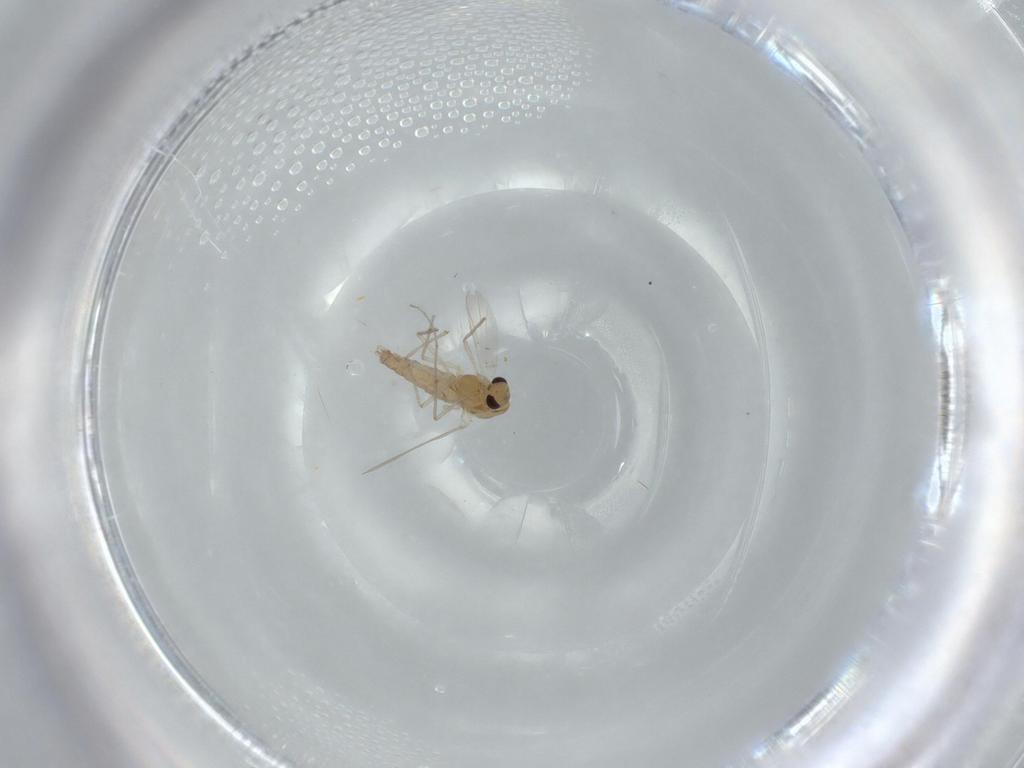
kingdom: Animalia
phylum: Arthropoda
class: Insecta
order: Diptera
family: Chironomidae
